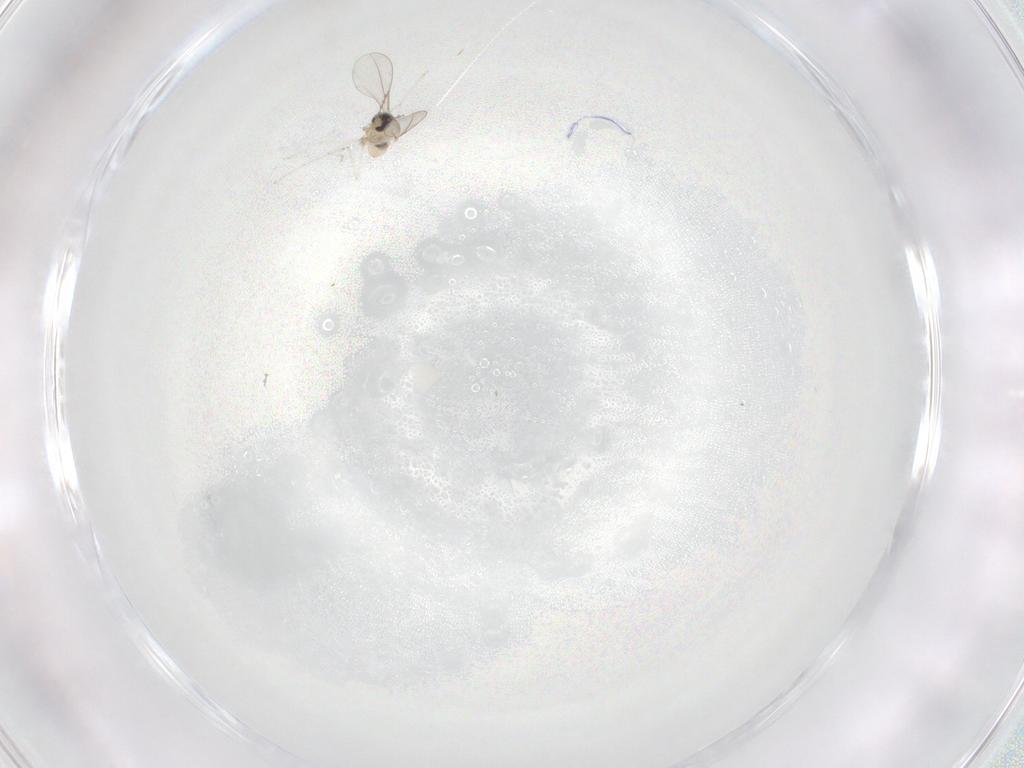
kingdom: Animalia
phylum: Arthropoda
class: Insecta
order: Diptera
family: Cecidomyiidae
